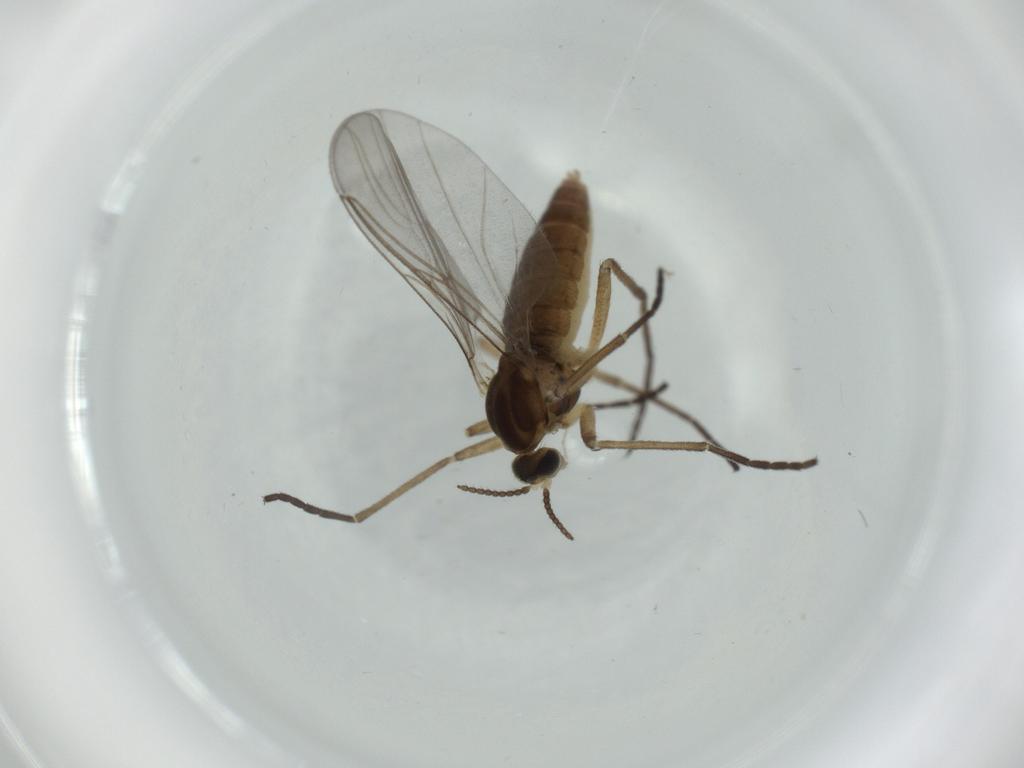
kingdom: Animalia
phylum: Arthropoda
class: Insecta
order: Diptera
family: Cecidomyiidae
